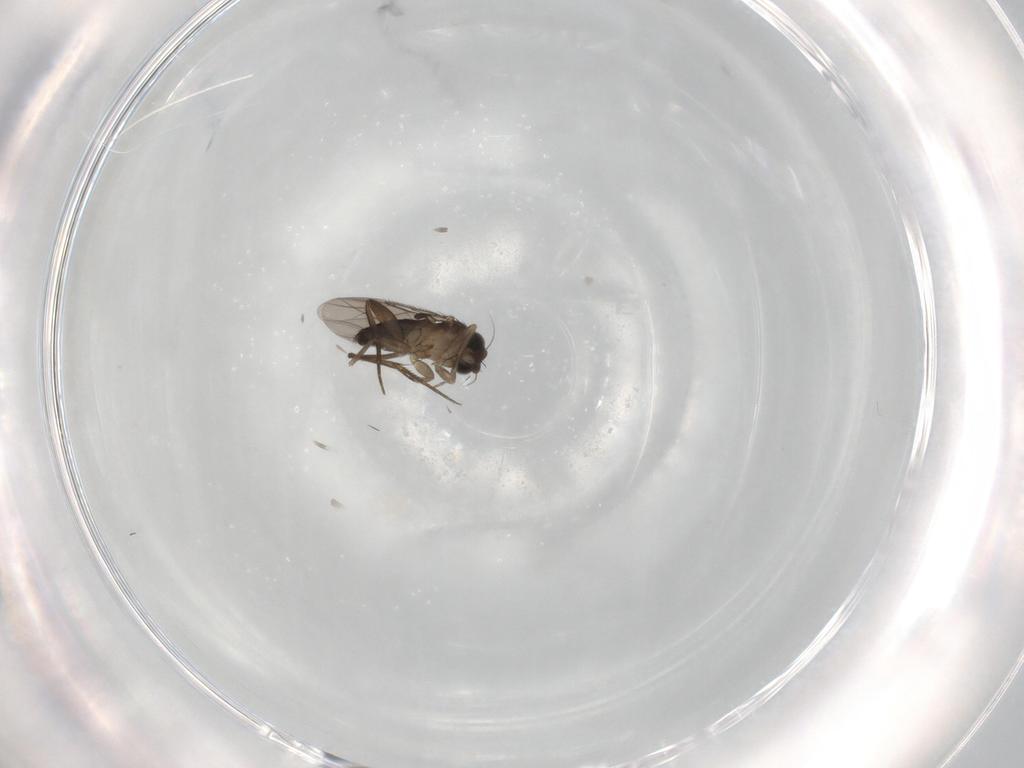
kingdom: Animalia
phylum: Arthropoda
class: Insecta
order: Diptera
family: Phoridae
